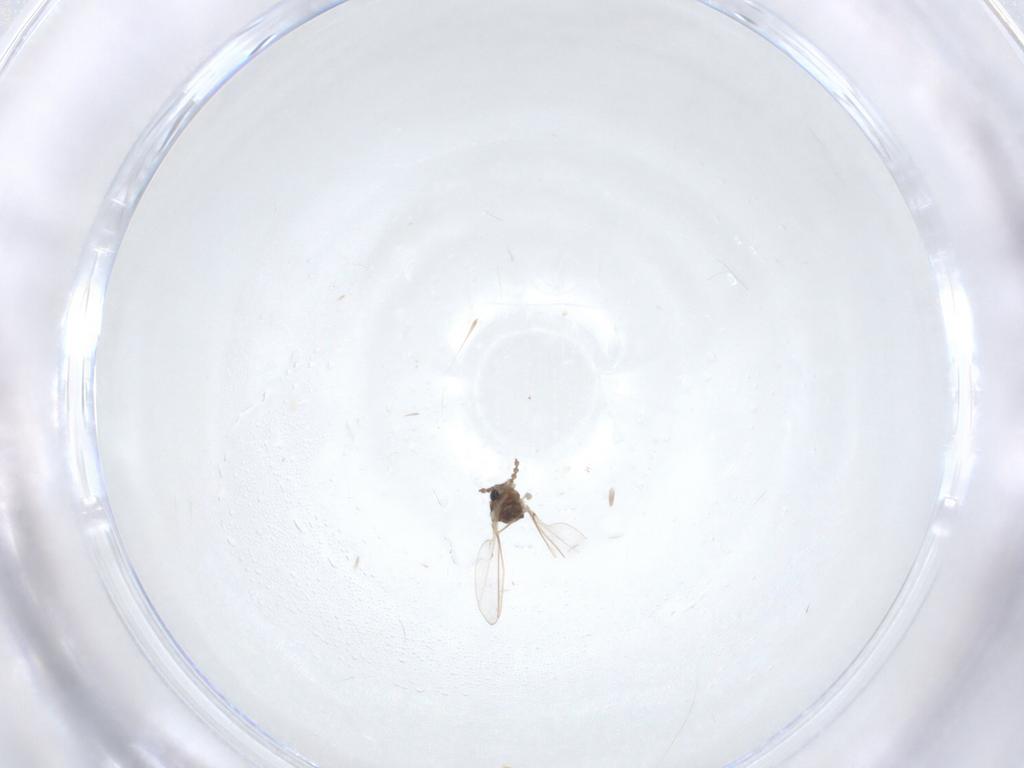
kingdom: Animalia
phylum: Arthropoda
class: Insecta
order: Diptera
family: Cecidomyiidae
